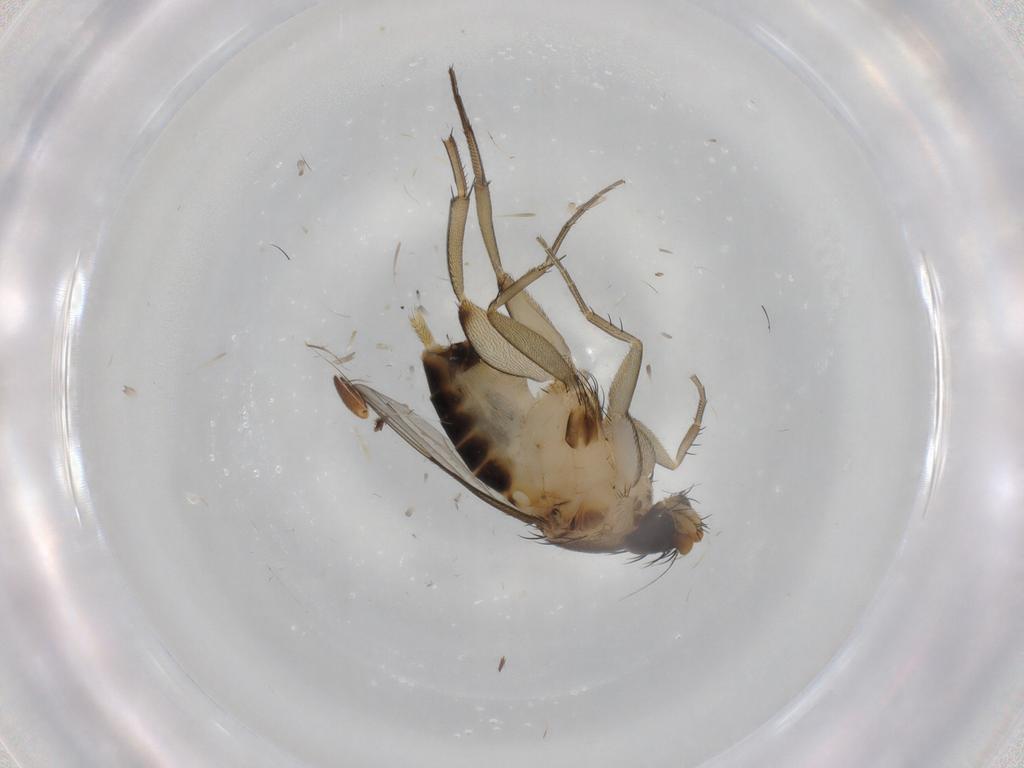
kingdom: Animalia
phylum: Arthropoda
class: Insecta
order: Diptera
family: Phoridae
